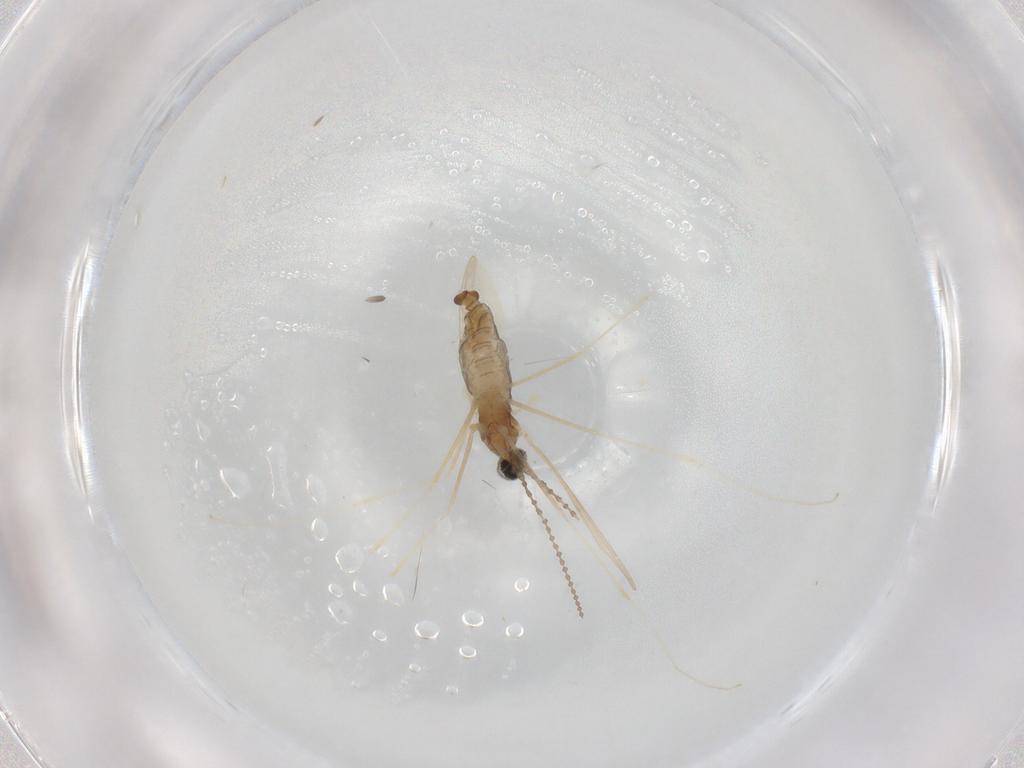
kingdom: Animalia
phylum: Arthropoda
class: Insecta
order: Diptera
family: Cecidomyiidae
